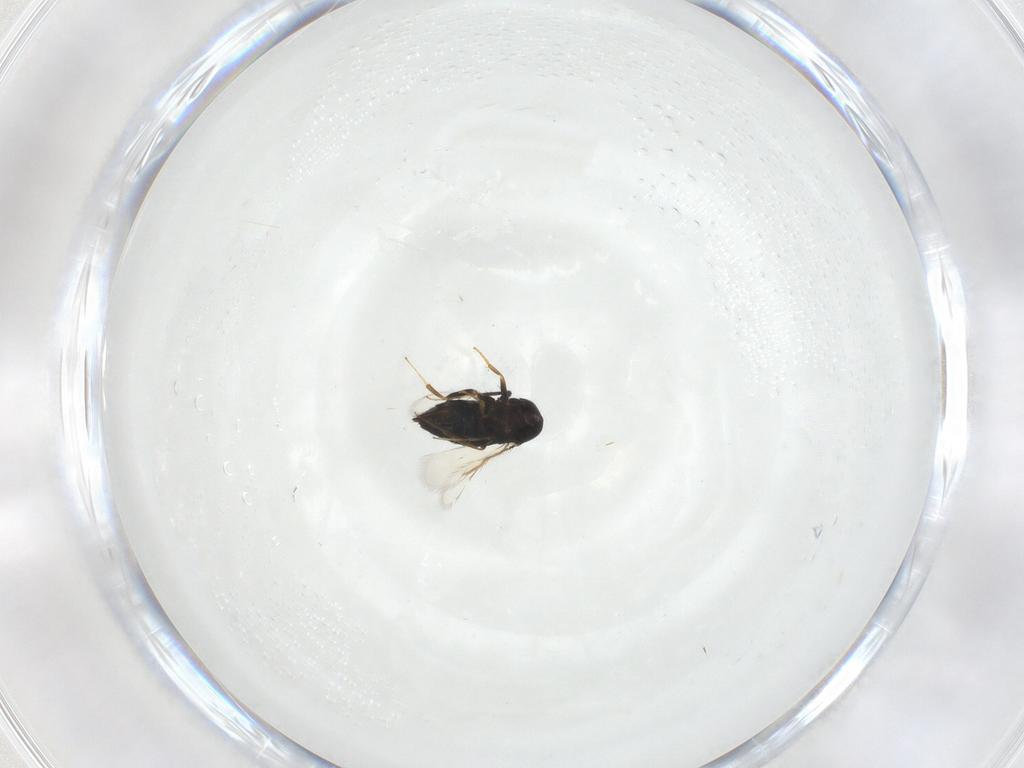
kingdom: Animalia
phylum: Arthropoda
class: Insecta
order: Hymenoptera
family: Signiphoridae
